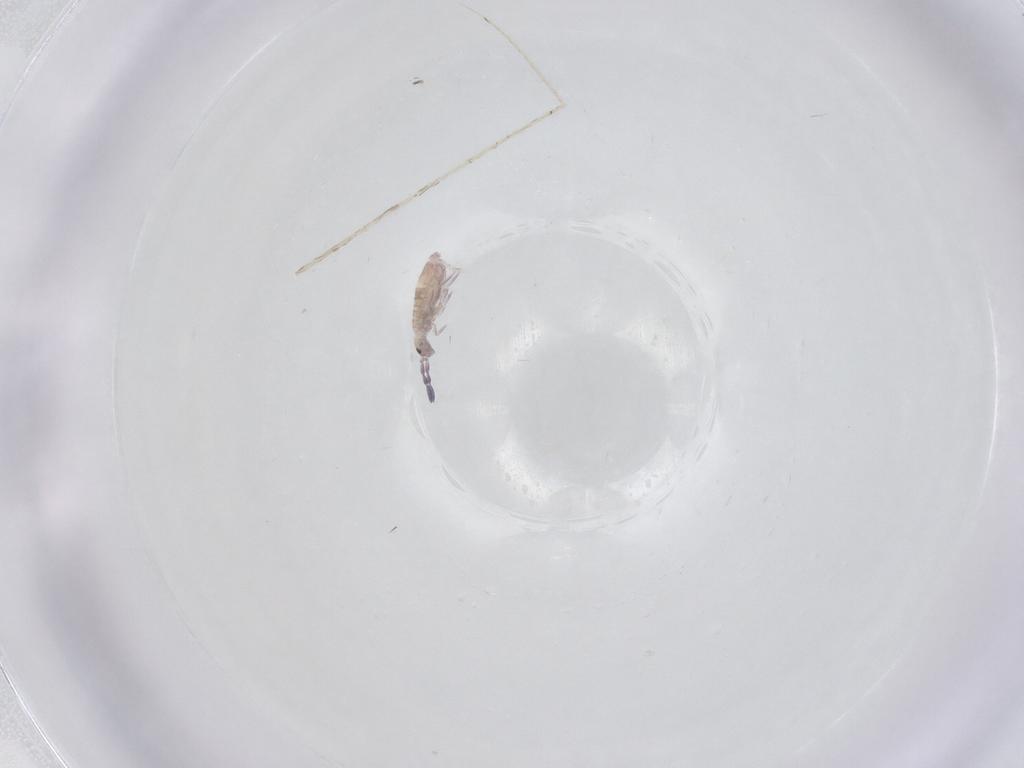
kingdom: Animalia
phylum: Arthropoda
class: Collembola
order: Entomobryomorpha
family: Entomobryidae
